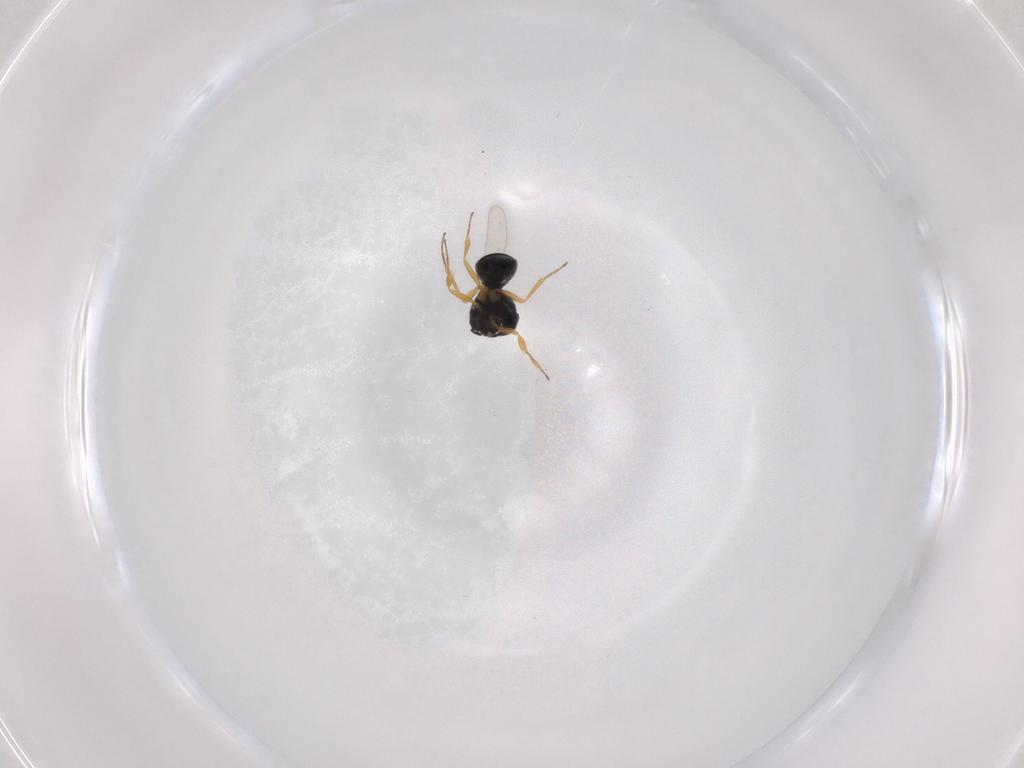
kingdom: Animalia
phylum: Arthropoda
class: Insecta
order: Hymenoptera
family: Scelionidae
